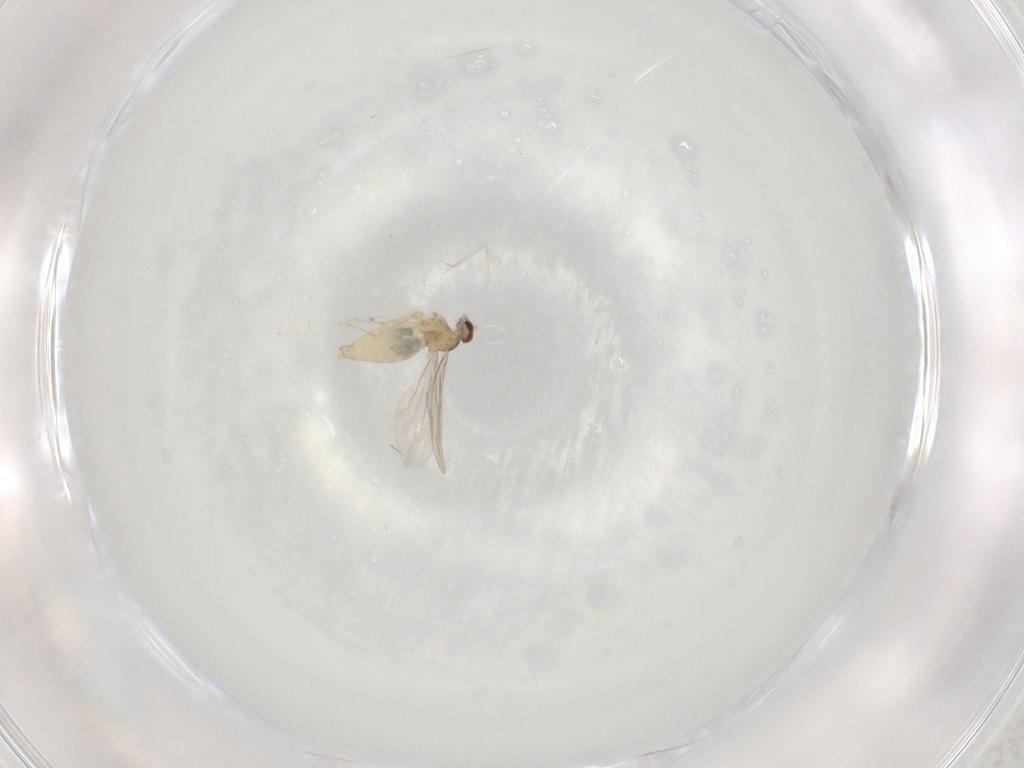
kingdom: Animalia
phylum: Arthropoda
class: Insecta
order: Diptera
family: Cecidomyiidae
